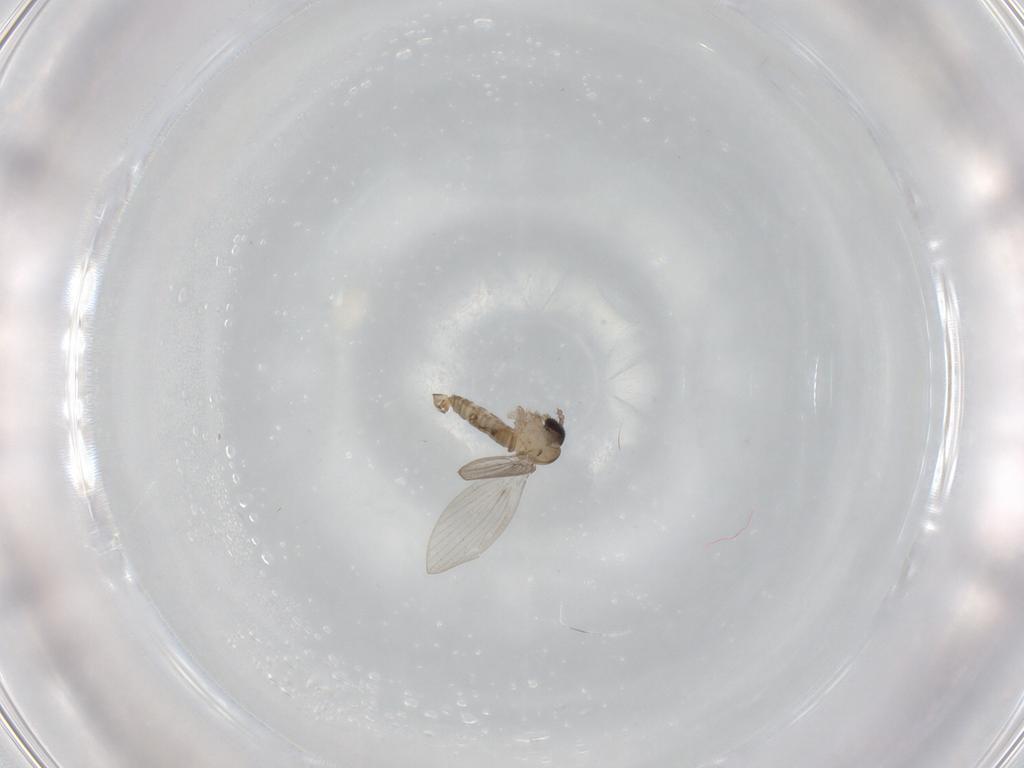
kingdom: Animalia
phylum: Arthropoda
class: Insecta
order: Diptera
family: Psychodidae
